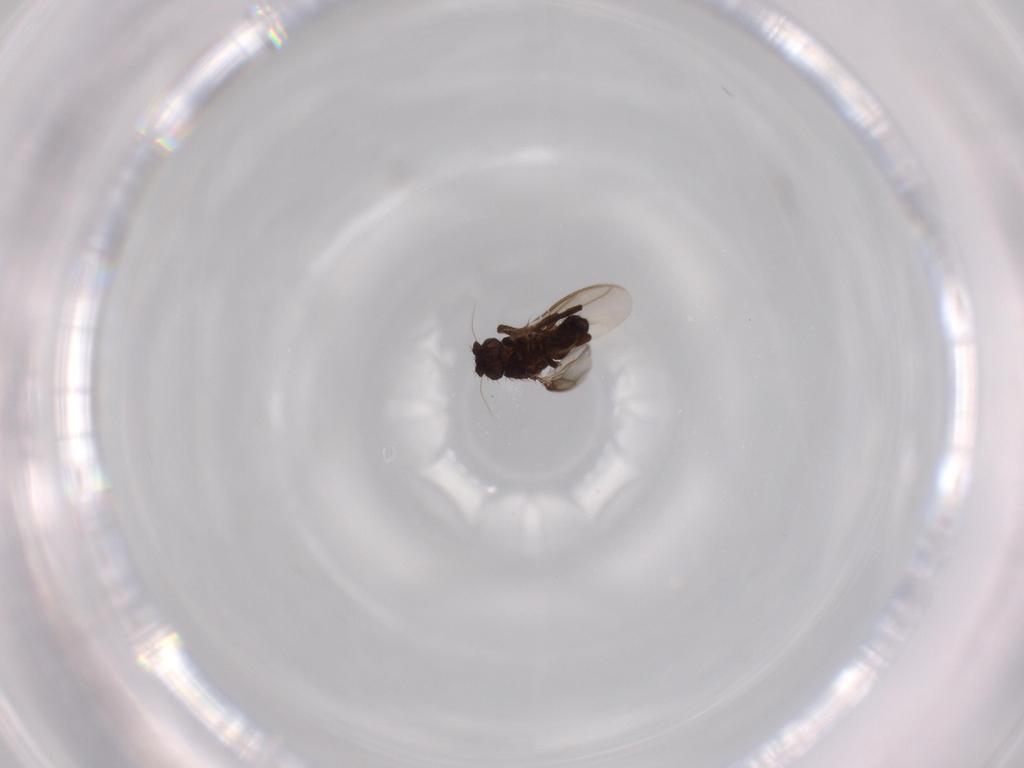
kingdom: Animalia
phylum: Arthropoda
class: Insecta
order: Diptera
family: Sphaeroceridae
